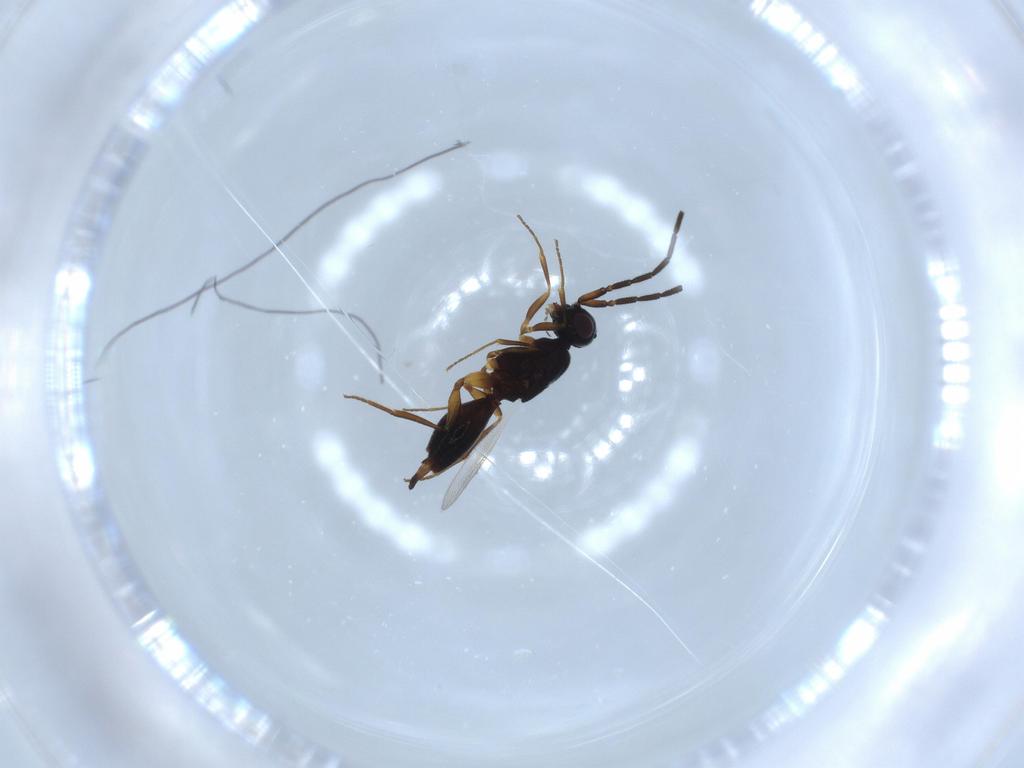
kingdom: Animalia
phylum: Arthropoda
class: Insecta
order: Hymenoptera
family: Megaspilidae
